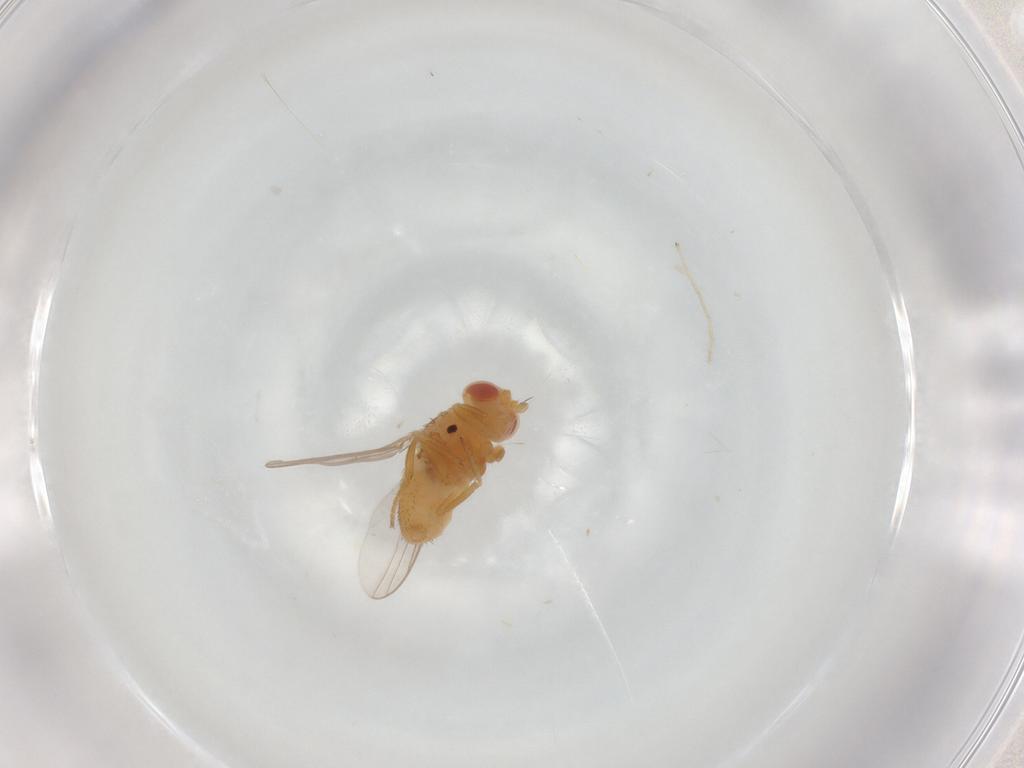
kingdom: Animalia
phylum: Arthropoda
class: Insecta
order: Diptera
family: Chloropidae
